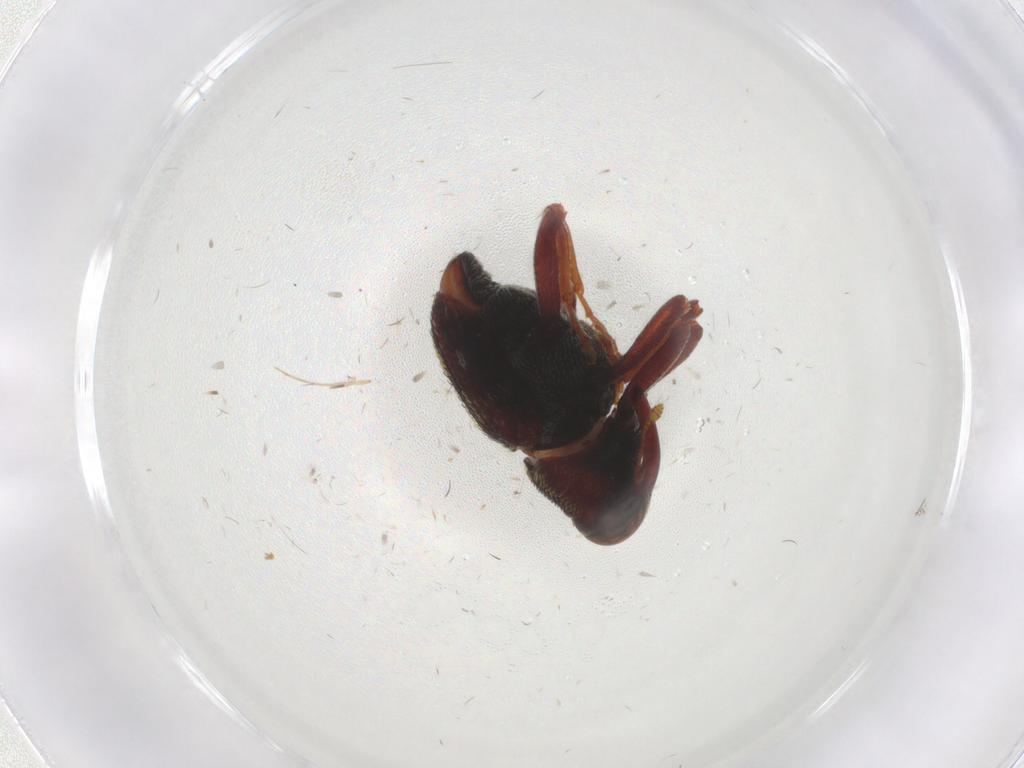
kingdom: Animalia
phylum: Arthropoda
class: Insecta
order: Coleoptera
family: Curculionidae
